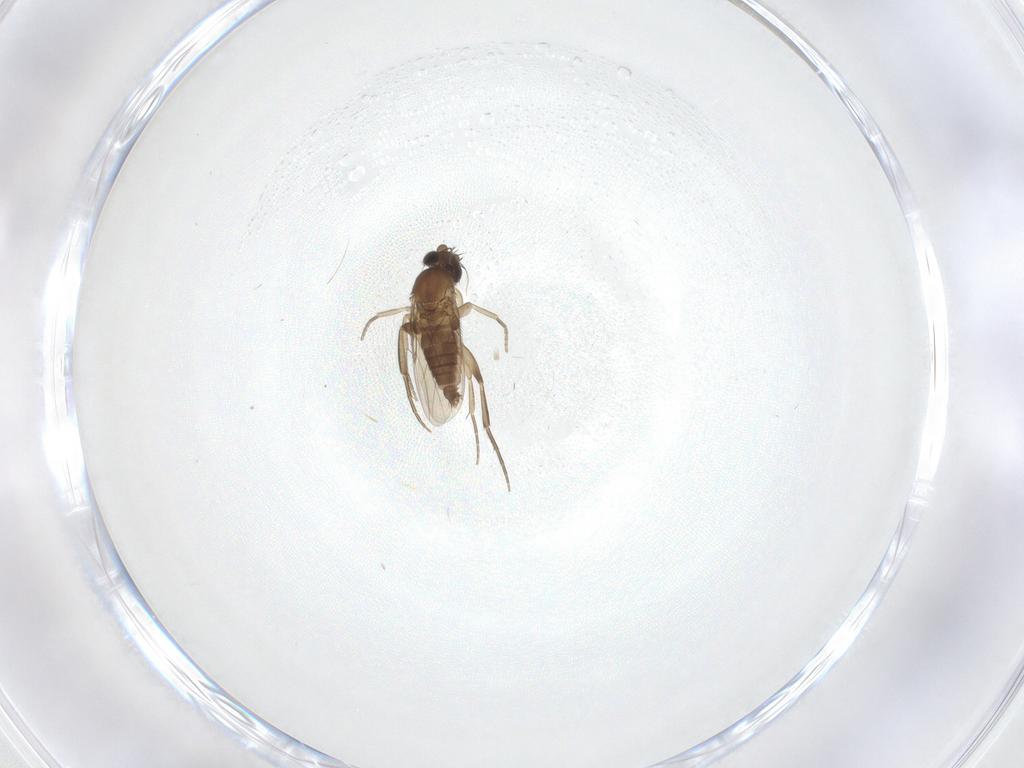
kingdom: Animalia
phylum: Arthropoda
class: Insecta
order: Diptera
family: Phoridae
